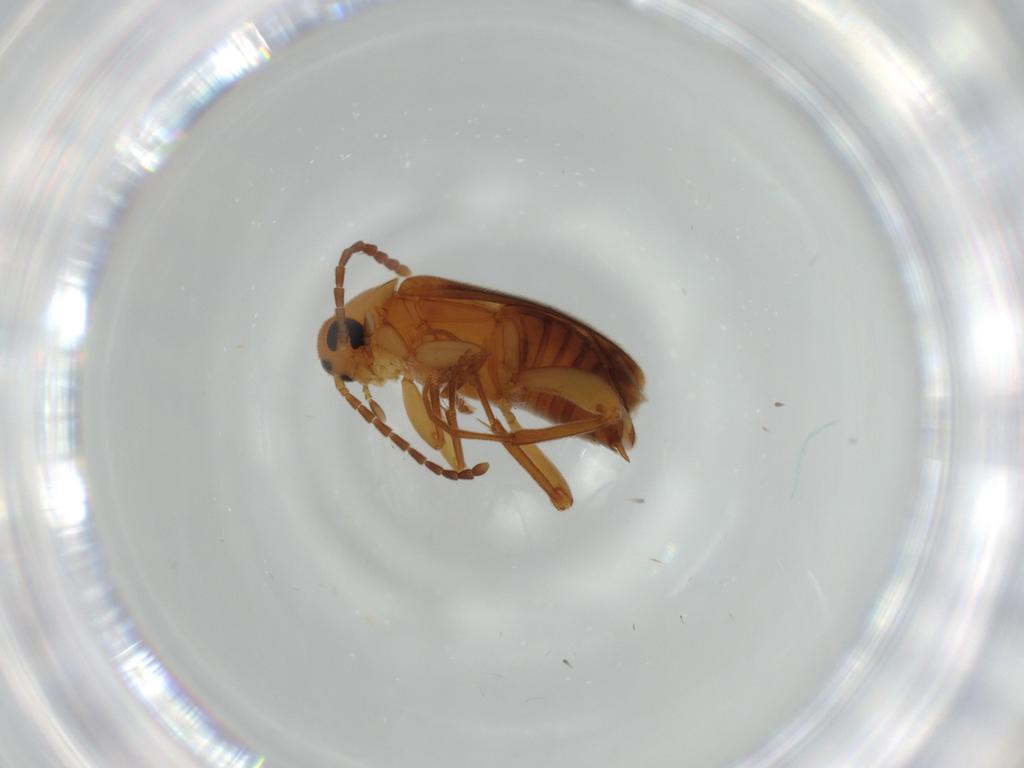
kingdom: Animalia
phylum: Arthropoda
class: Insecta
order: Coleoptera
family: Scraptiidae
